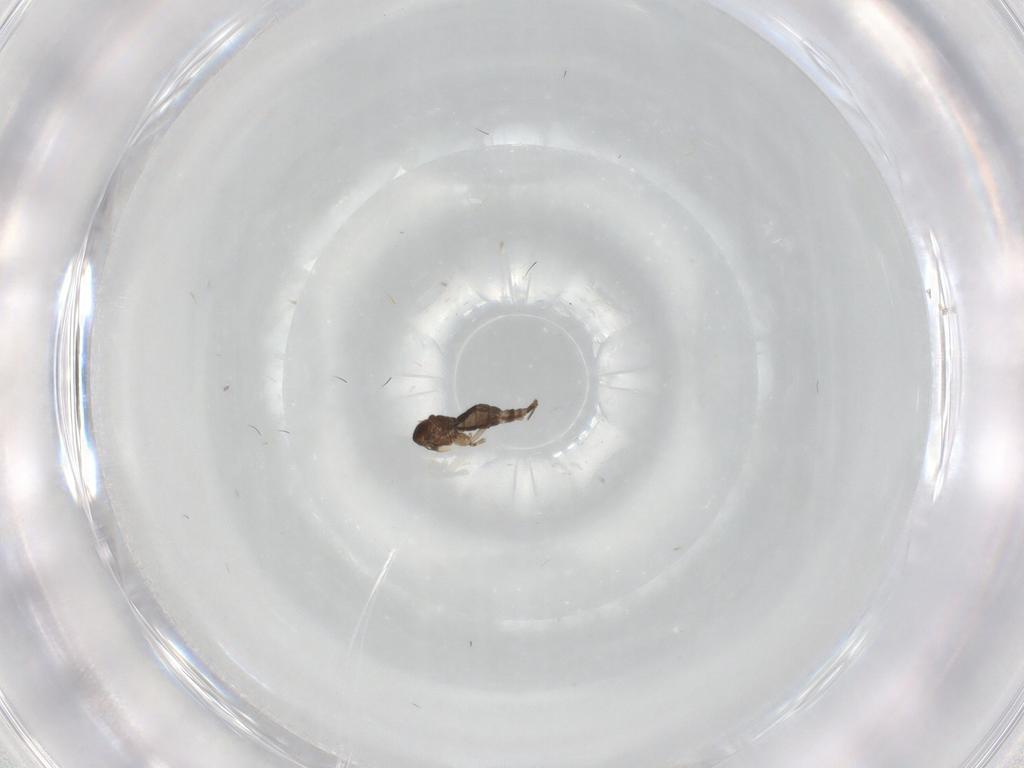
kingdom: Animalia
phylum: Arthropoda
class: Insecta
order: Diptera
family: Sciaridae
